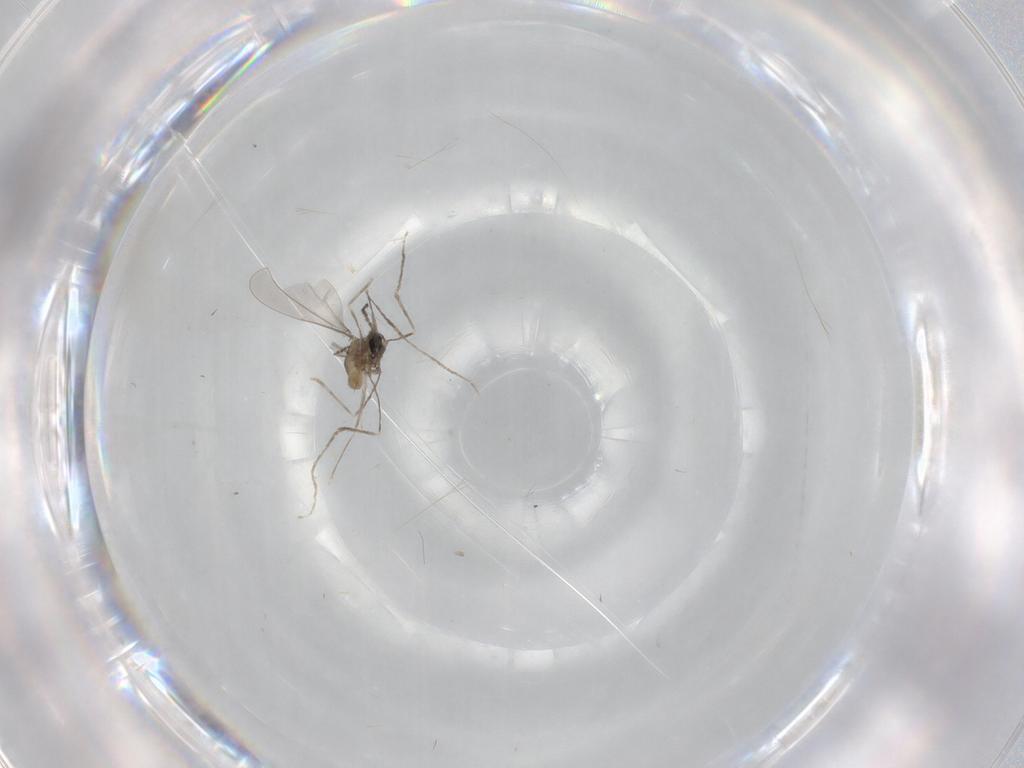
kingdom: Animalia
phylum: Arthropoda
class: Insecta
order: Diptera
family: Cecidomyiidae
